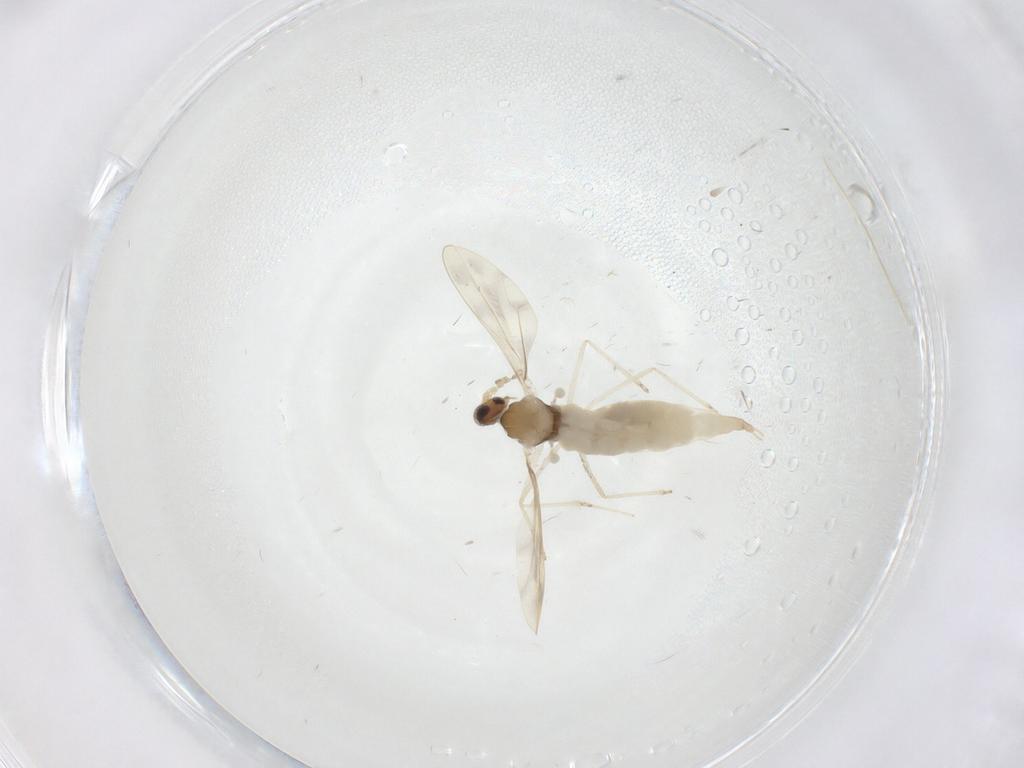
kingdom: Animalia
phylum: Arthropoda
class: Insecta
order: Diptera
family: Cecidomyiidae
